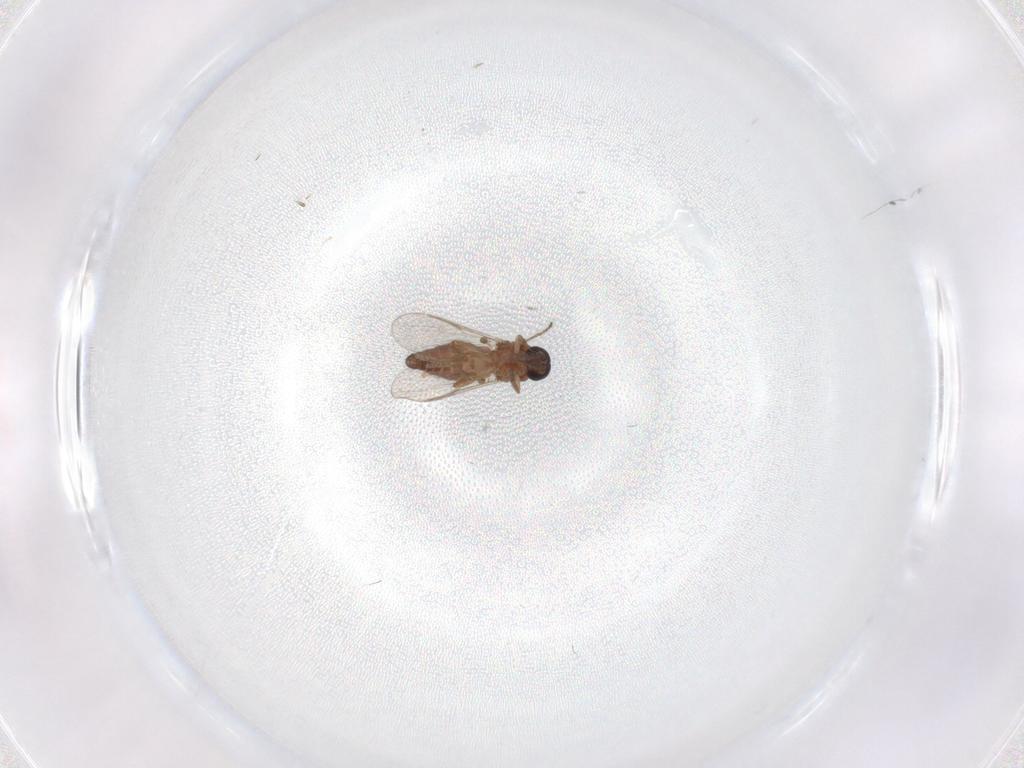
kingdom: Animalia
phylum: Arthropoda
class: Insecta
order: Diptera
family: Ceratopogonidae
